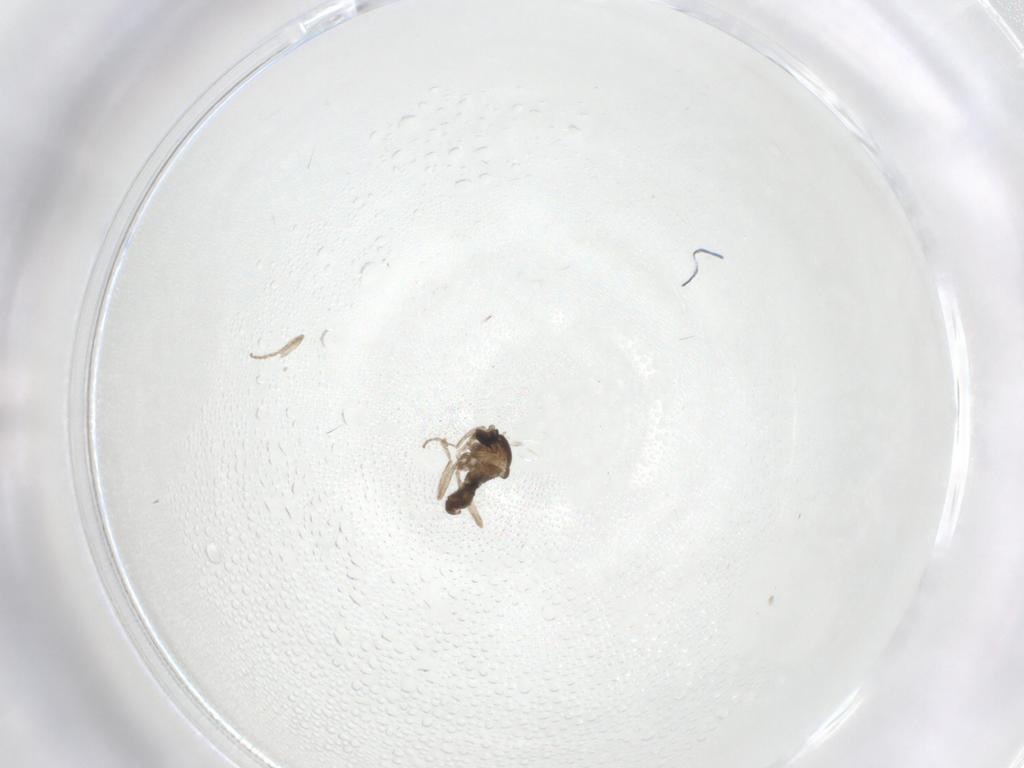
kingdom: Animalia
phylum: Arthropoda
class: Insecta
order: Diptera
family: Cecidomyiidae
